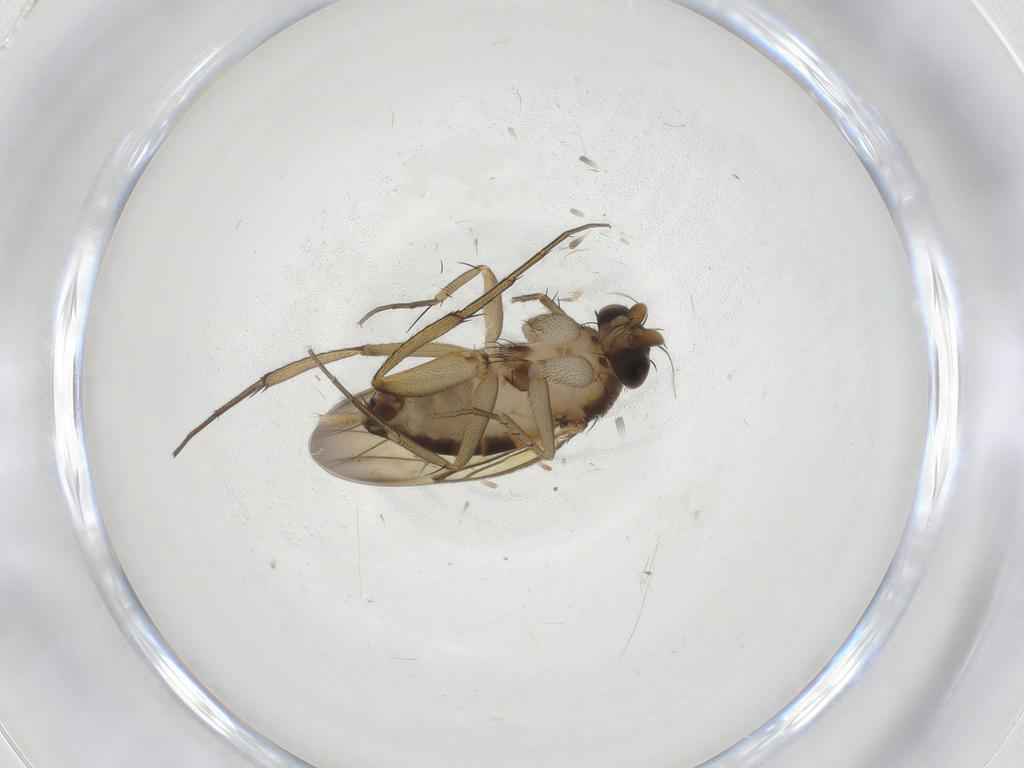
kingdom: Animalia
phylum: Arthropoda
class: Insecta
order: Diptera
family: Phoridae
